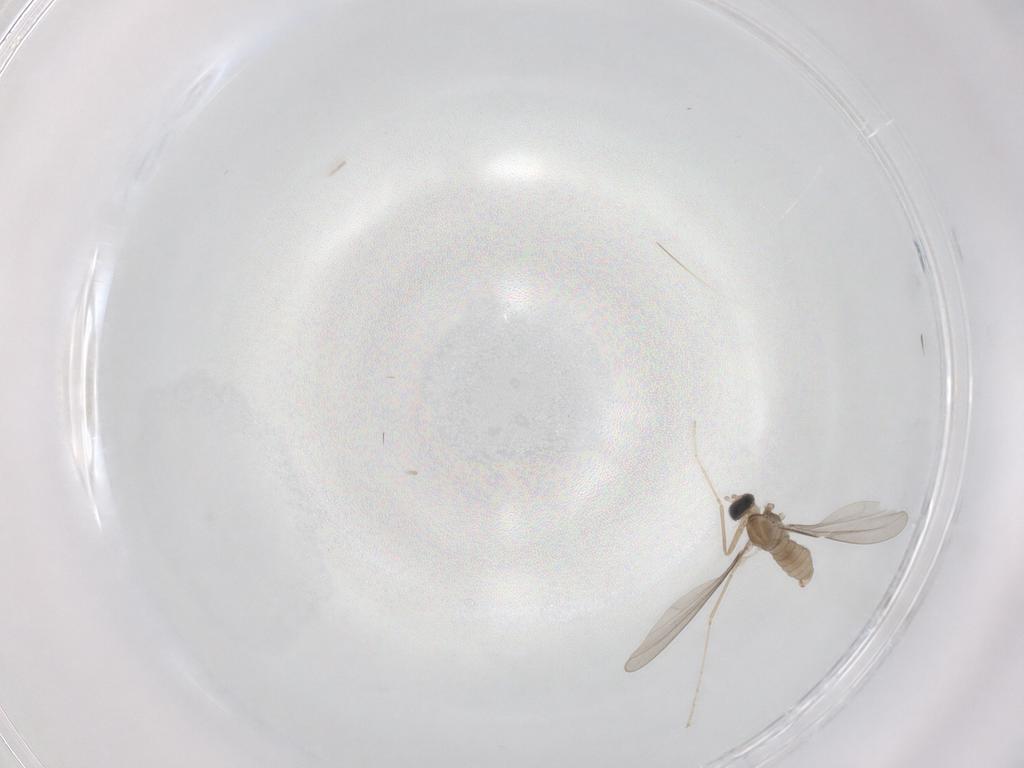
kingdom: Animalia
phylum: Arthropoda
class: Insecta
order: Diptera
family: Cecidomyiidae
